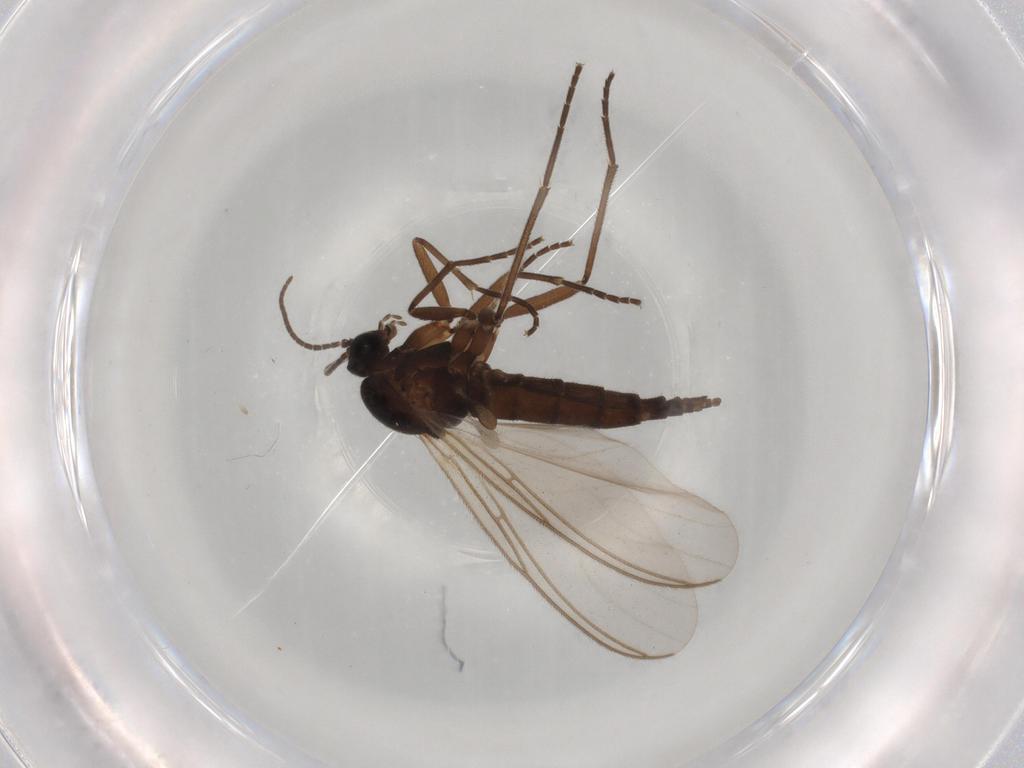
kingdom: Animalia
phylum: Arthropoda
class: Insecta
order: Diptera
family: Sciaridae
